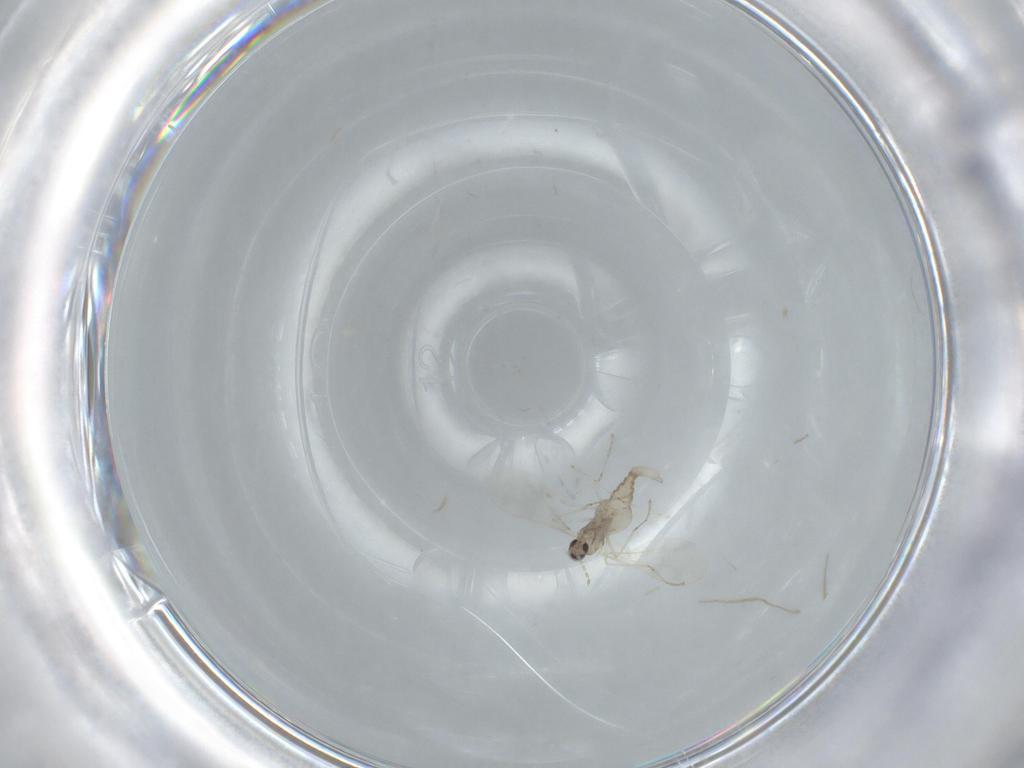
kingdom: Animalia
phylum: Arthropoda
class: Insecta
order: Diptera
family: Cecidomyiidae
